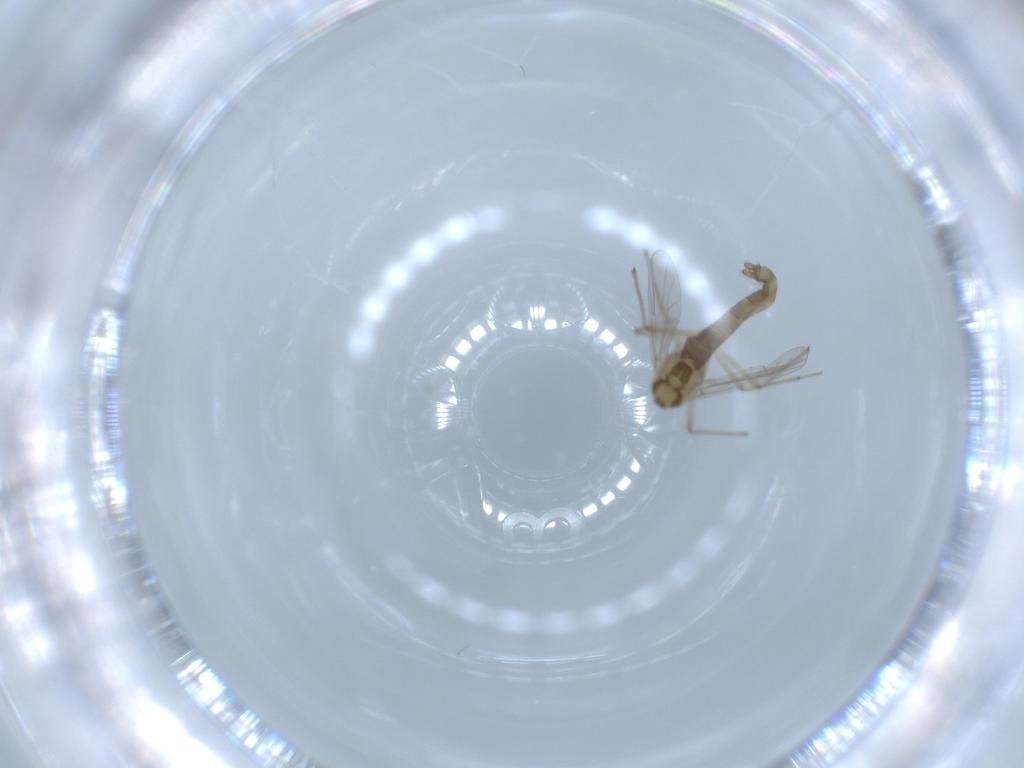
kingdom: Animalia
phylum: Arthropoda
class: Insecta
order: Diptera
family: Chironomidae
